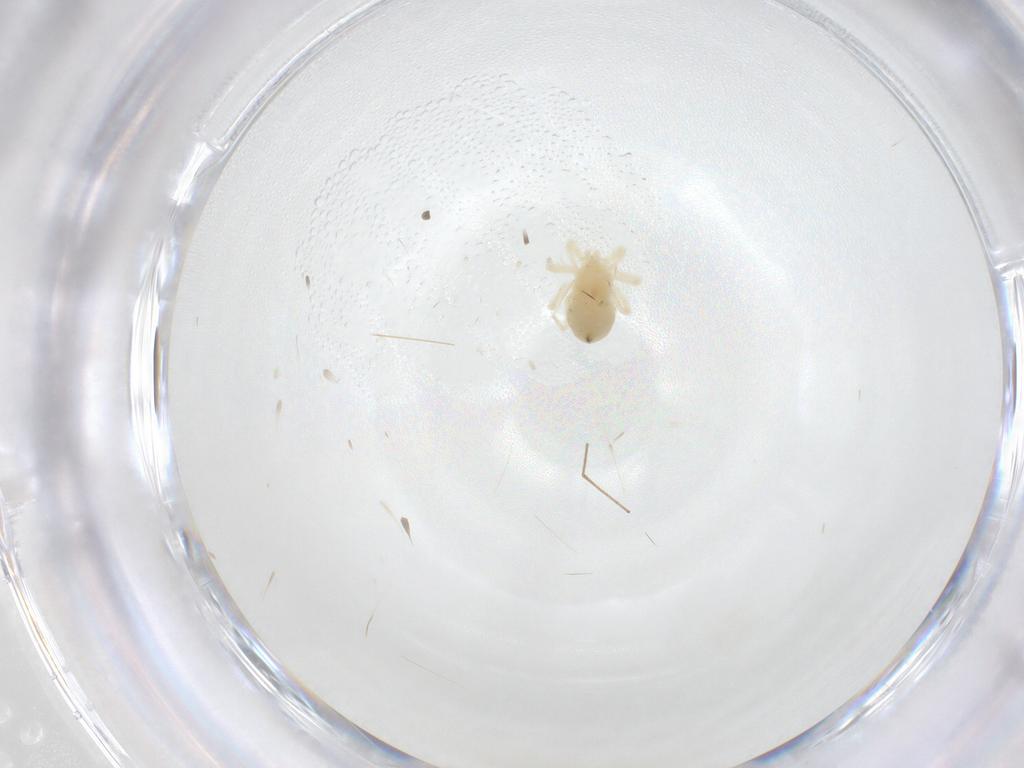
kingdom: Animalia
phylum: Arthropoda
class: Arachnida
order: Trombidiformes
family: Anystidae
